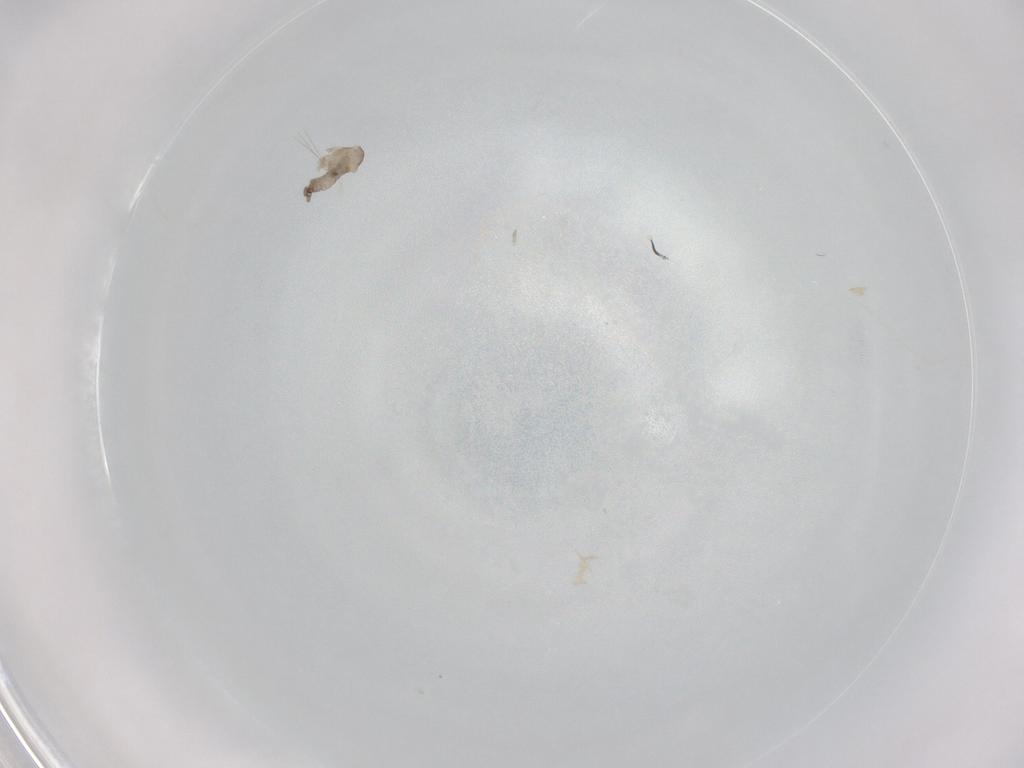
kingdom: Animalia
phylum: Arthropoda
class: Insecta
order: Diptera
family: Cecidomyiidae
